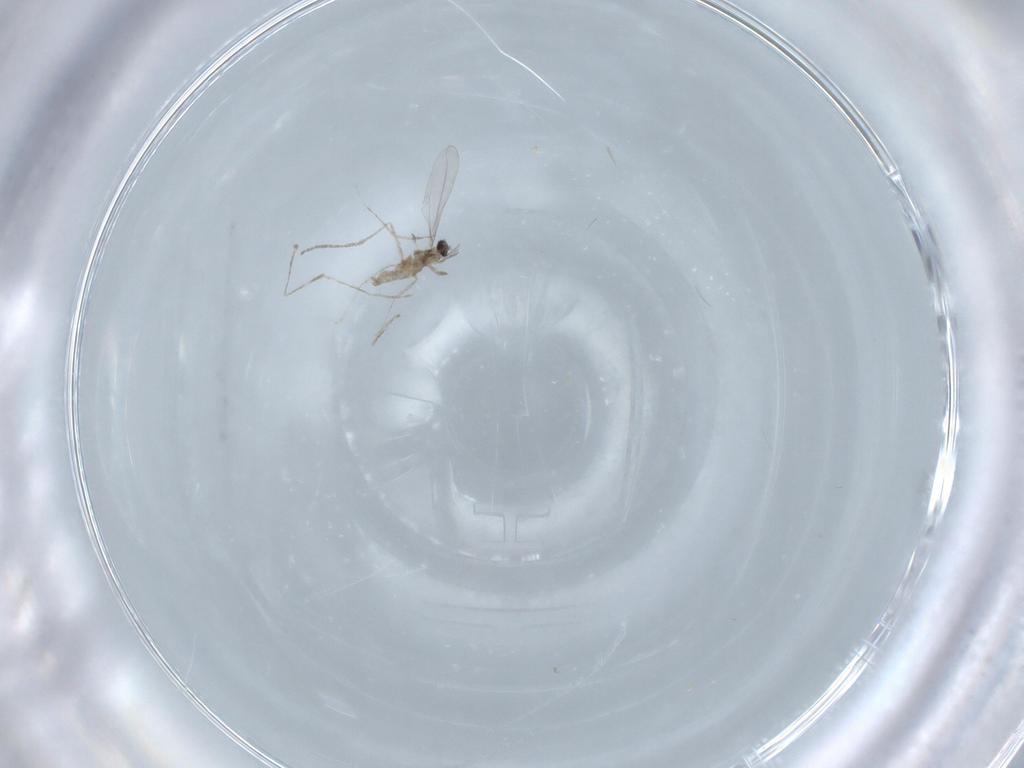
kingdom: Animalia
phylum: Arthropoda
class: Insecta
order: Diptera
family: Cecidomyiidae
